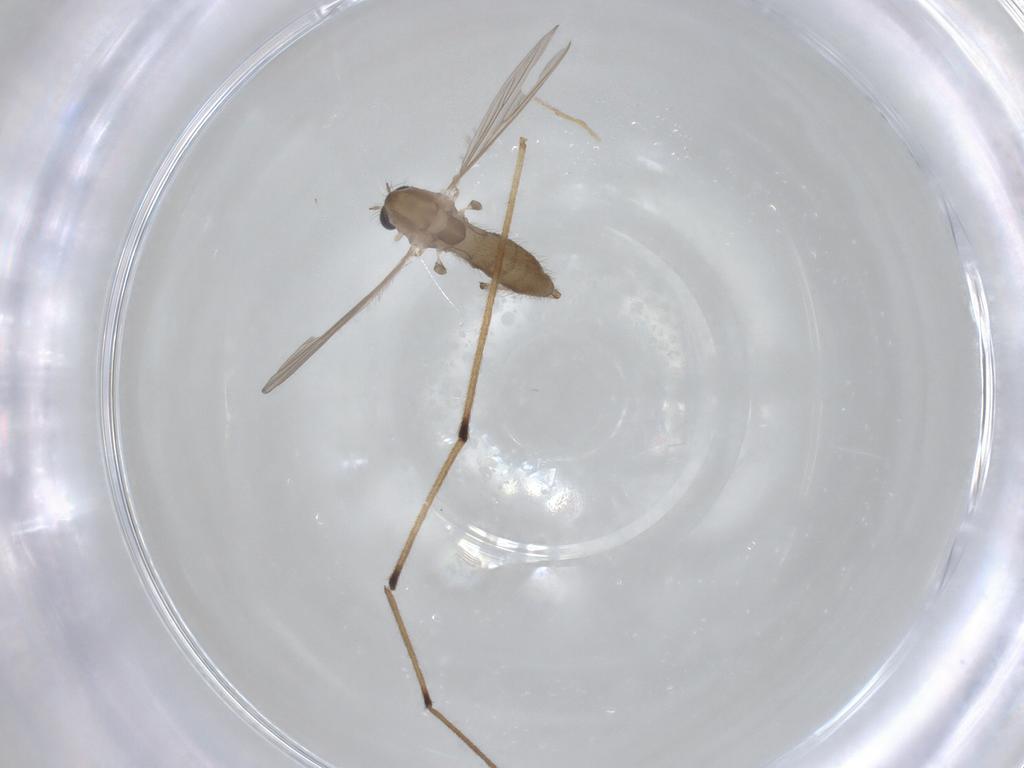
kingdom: Animalia
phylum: Arthropoda
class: Insecta
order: Diptera
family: Chironomidae
